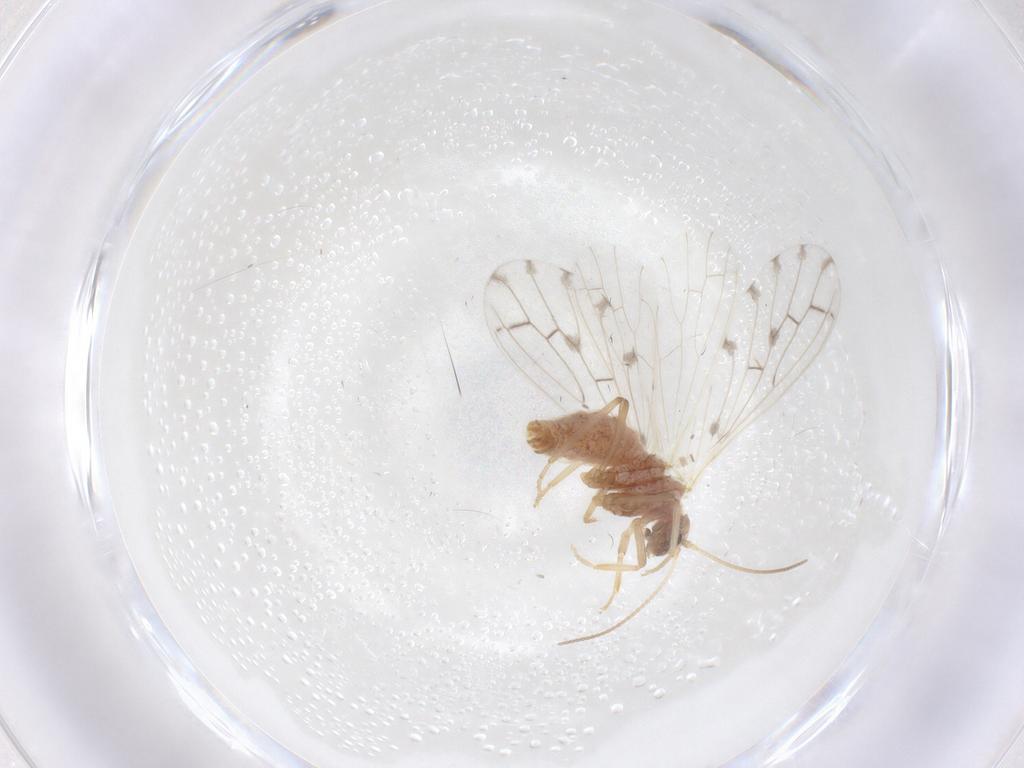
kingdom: Animalia
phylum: Arthropoda
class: Insecta
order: Neuroptera
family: Coniopterygidae
